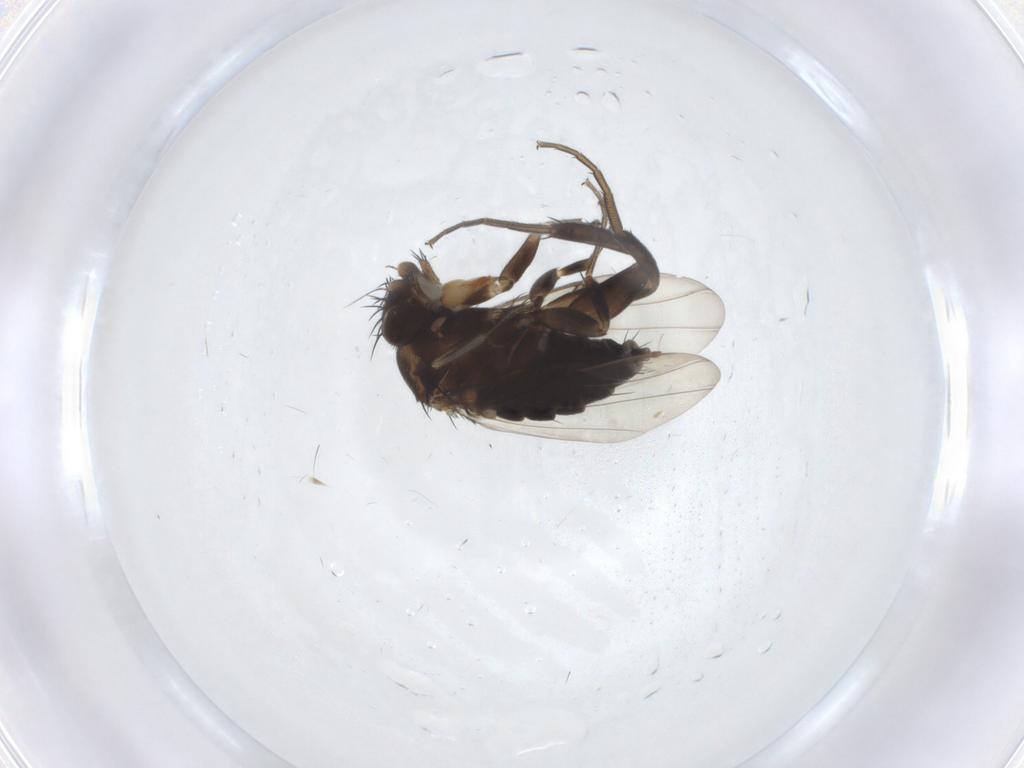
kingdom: Animalia
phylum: Arthropoda
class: Insecta
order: Diptera
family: Phoridae
